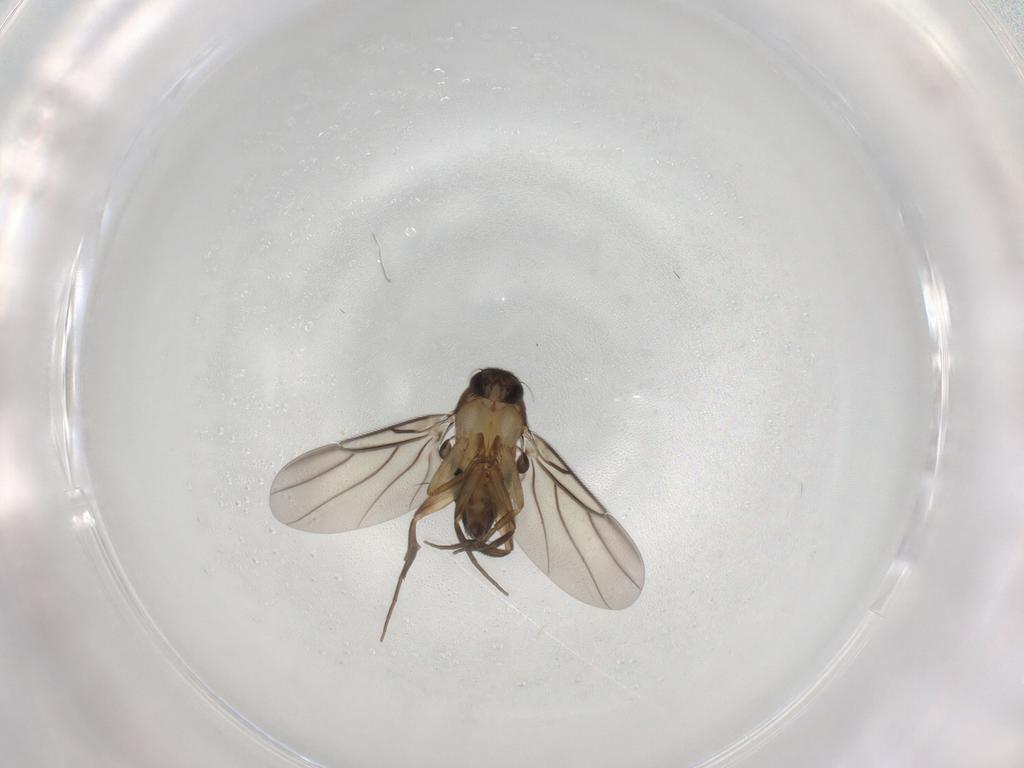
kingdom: Animalia
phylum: Arthropoda
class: Insecta
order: Diptera
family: Phoridae
